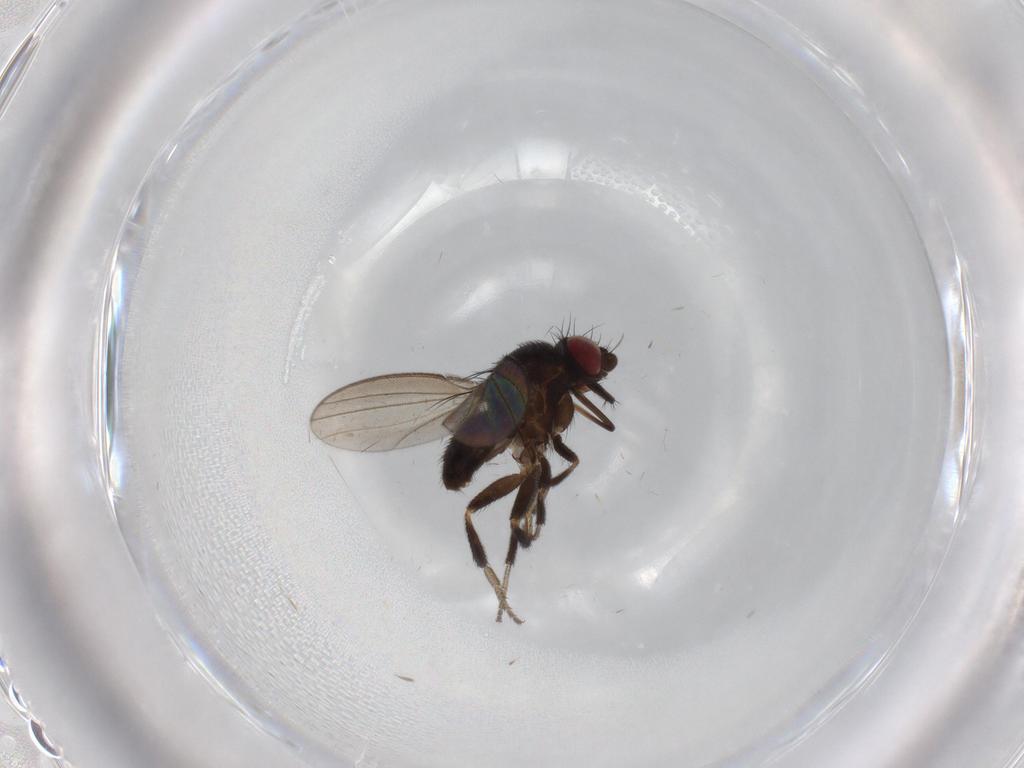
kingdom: Animalia
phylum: Arthropoda
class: Insecta
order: Diptera
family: Milichiidae
